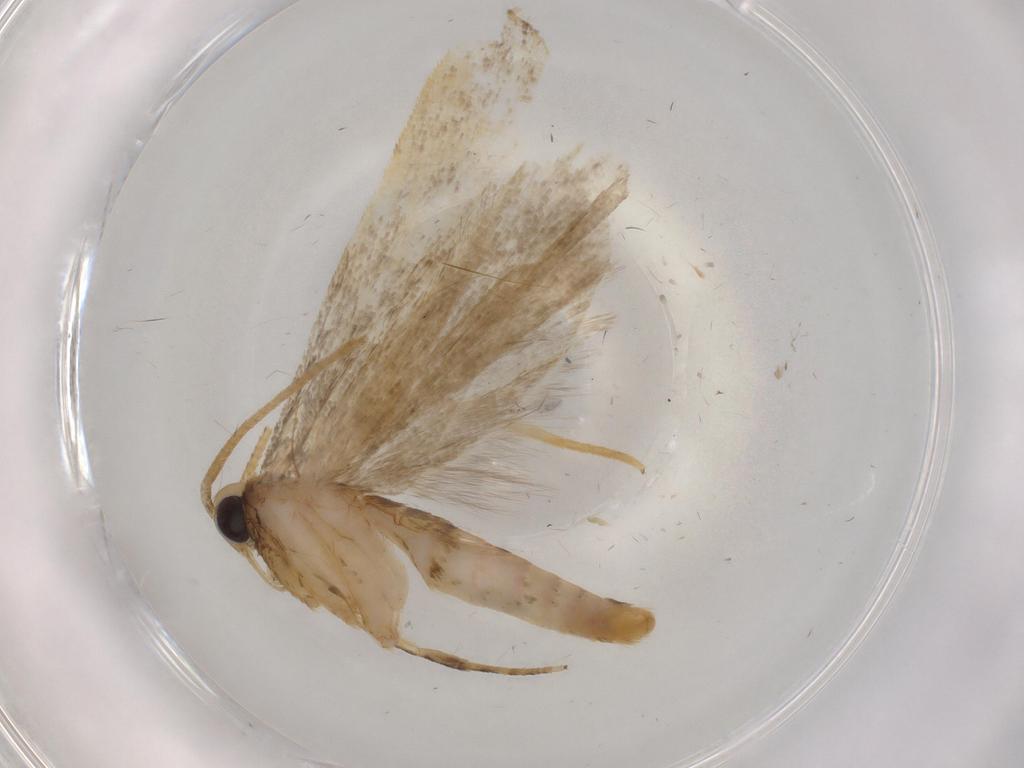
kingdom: Animalia
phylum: Arthropoda
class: Insecta
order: Lepidoptera
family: Autostichidae
